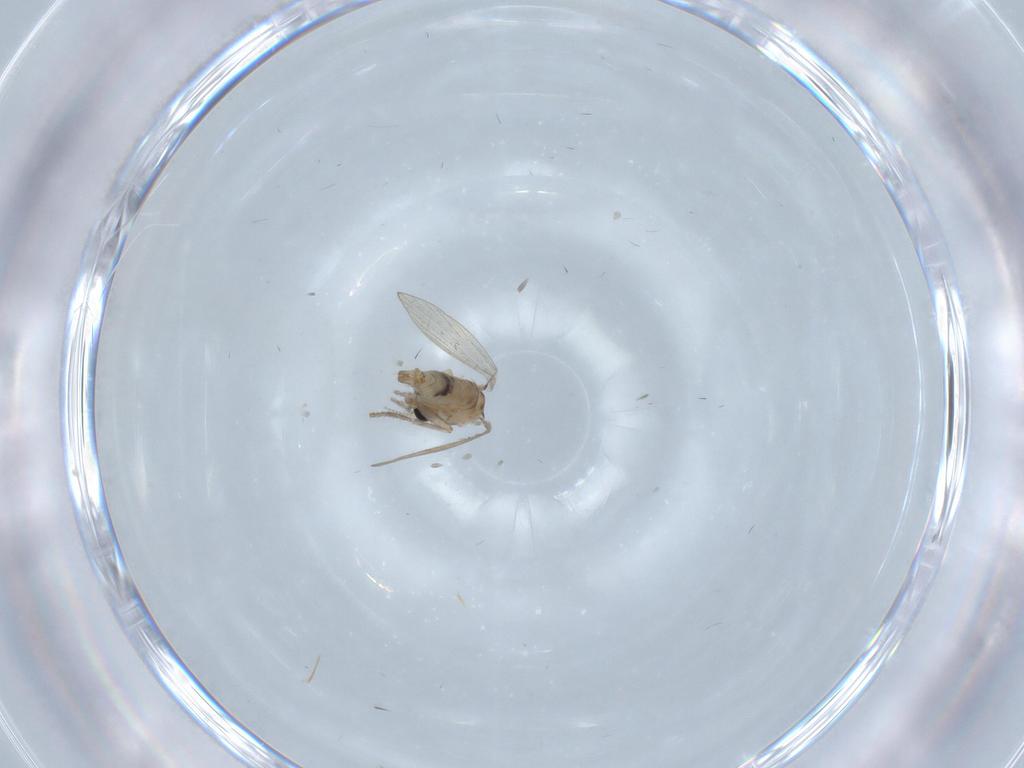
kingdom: Animalia
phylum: Arthropoda
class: Insecta
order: Diptera
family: Psychodidae
